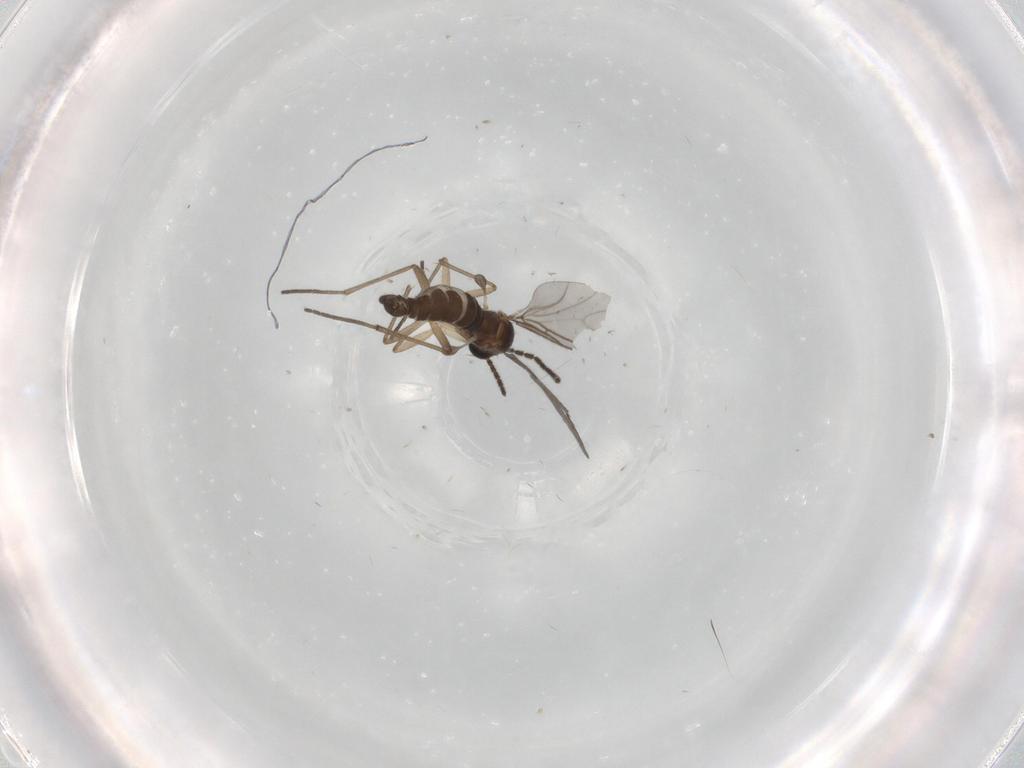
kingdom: Animalia
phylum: Arthropoda
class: Insecta
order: Diptera
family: Sciaridae
